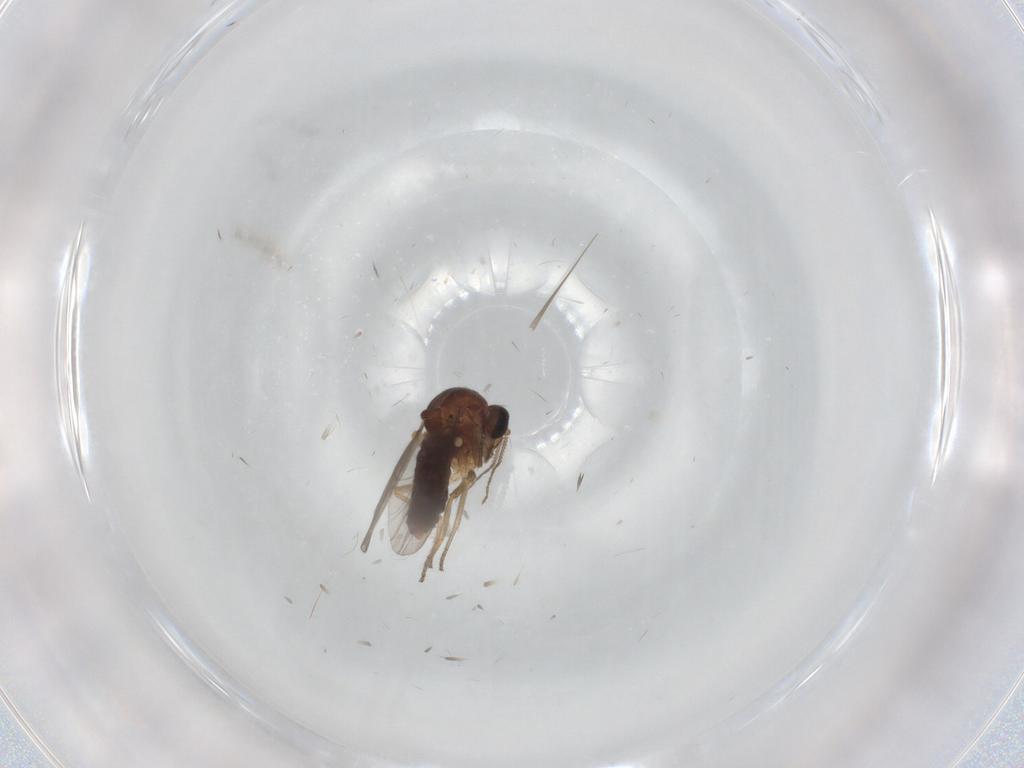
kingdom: Animalia
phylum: Arthropoda
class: Insecta
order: Diptera
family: Ceratopogonidae
